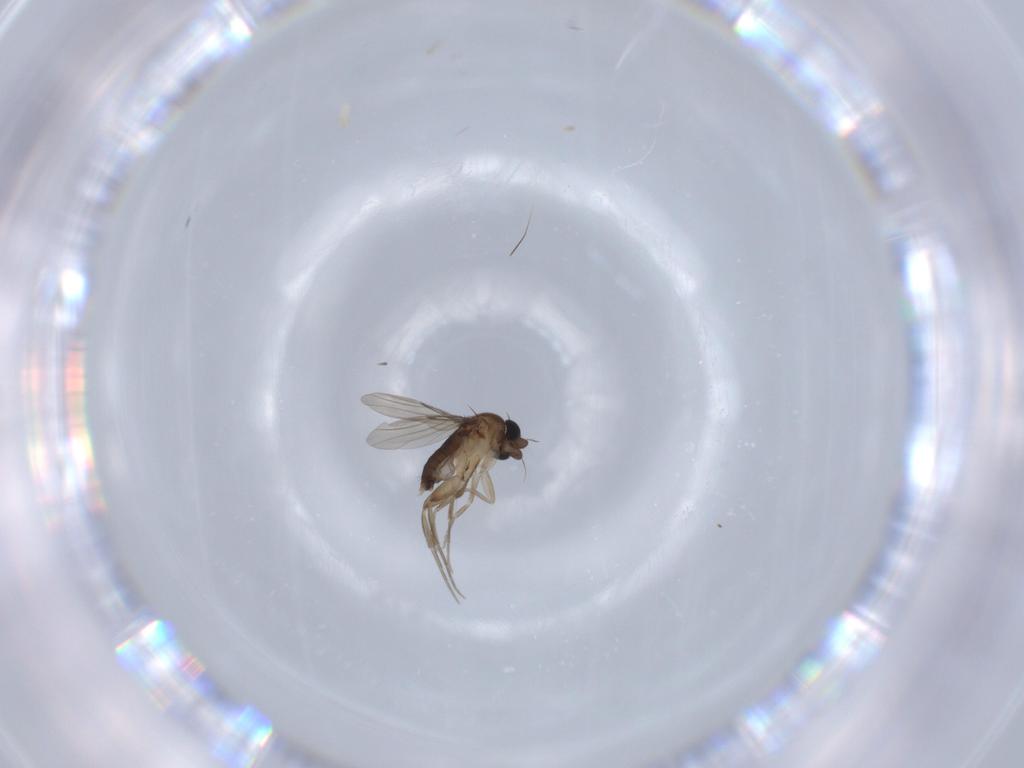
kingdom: Animalia
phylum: Arthropoda
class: Insecta
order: Diptera
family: Phoridae
